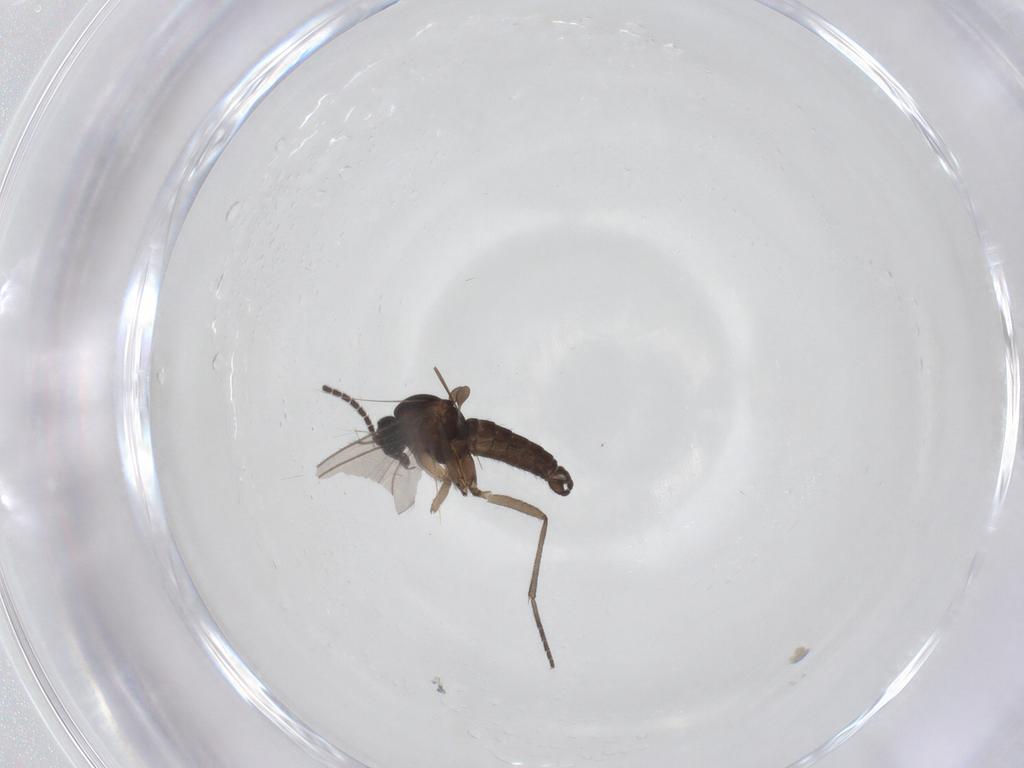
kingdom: Animalia
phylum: Arthropoda
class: Insecta
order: Diptera
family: Sciaridae
